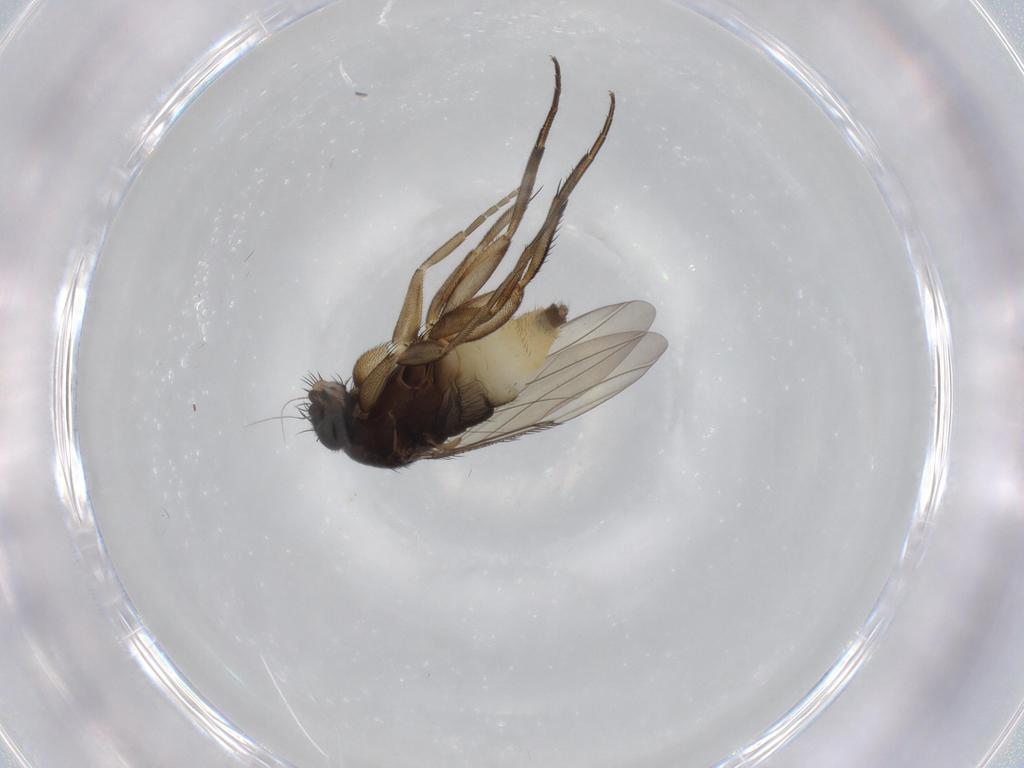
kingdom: Animalia
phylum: Arthropoda
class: Insecta
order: Diptera
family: Phoridae
